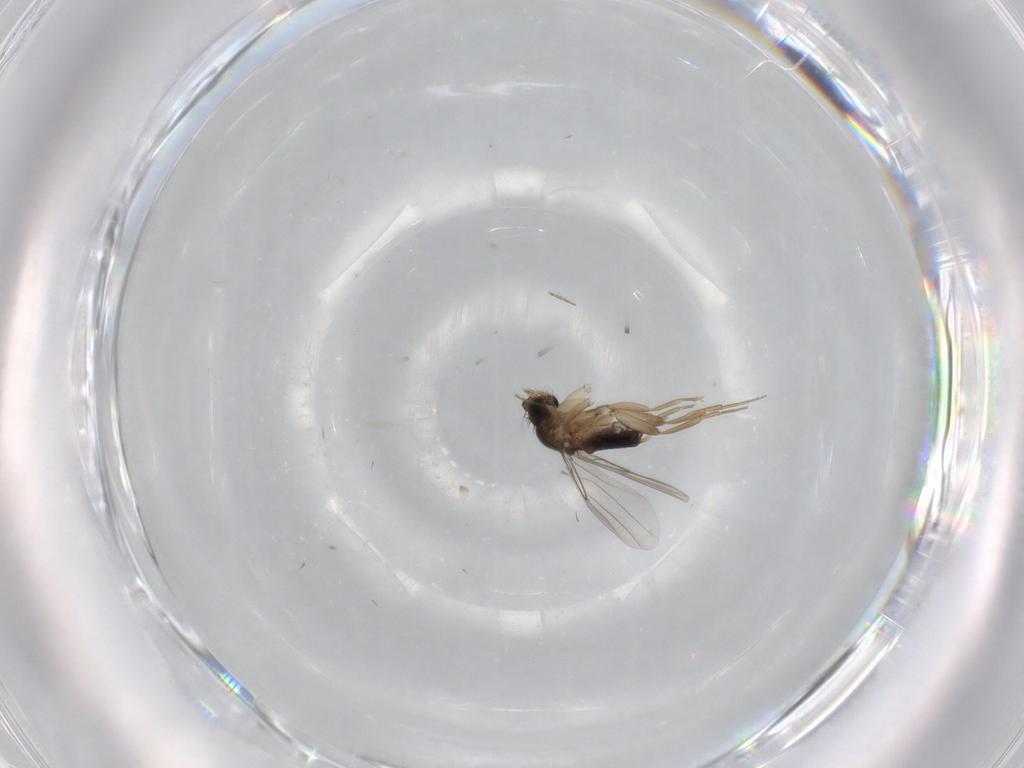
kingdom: Animalia
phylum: Arthropoda
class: Insecta
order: Diptera
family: Phoridae
